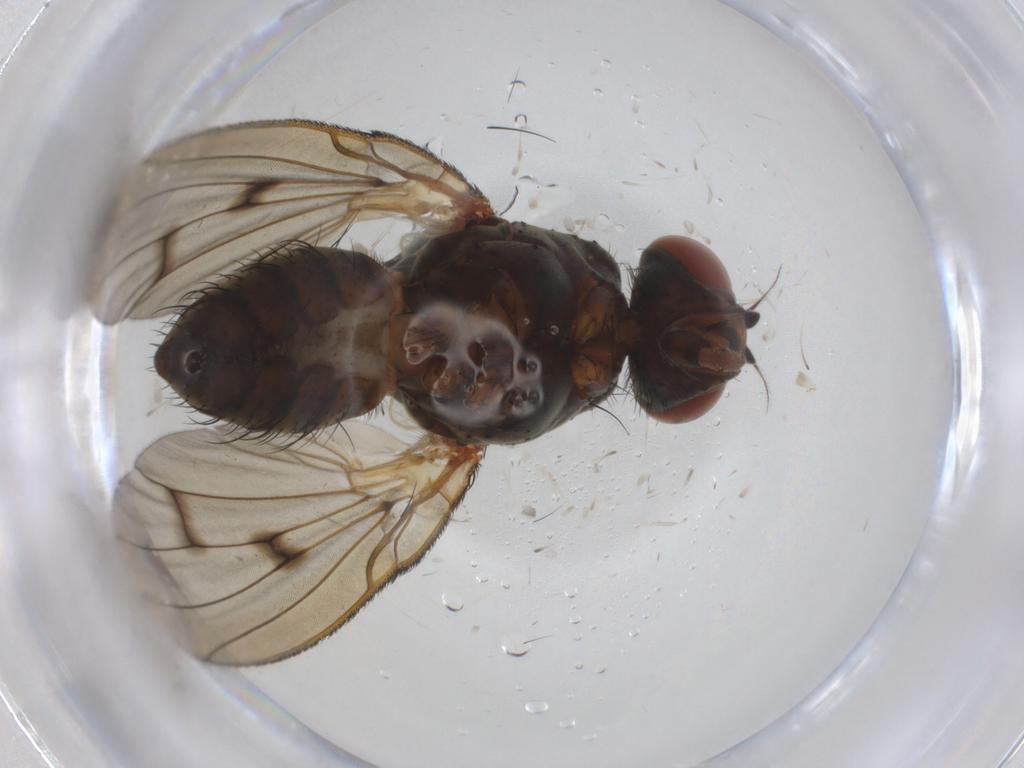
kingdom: Animalia
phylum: Arthropoda
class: Insecta
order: Diptera
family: Anthomyiidae
